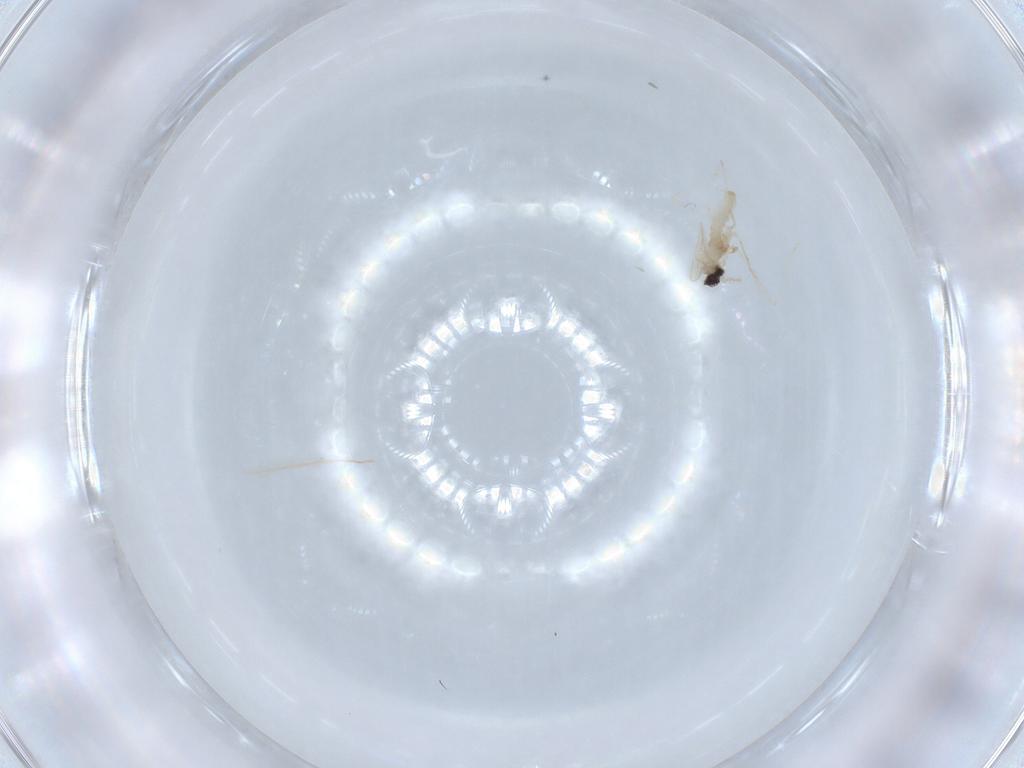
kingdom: Animalia
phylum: Arthropoda
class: Insecta
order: Diptera
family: Cecidomyiidae
